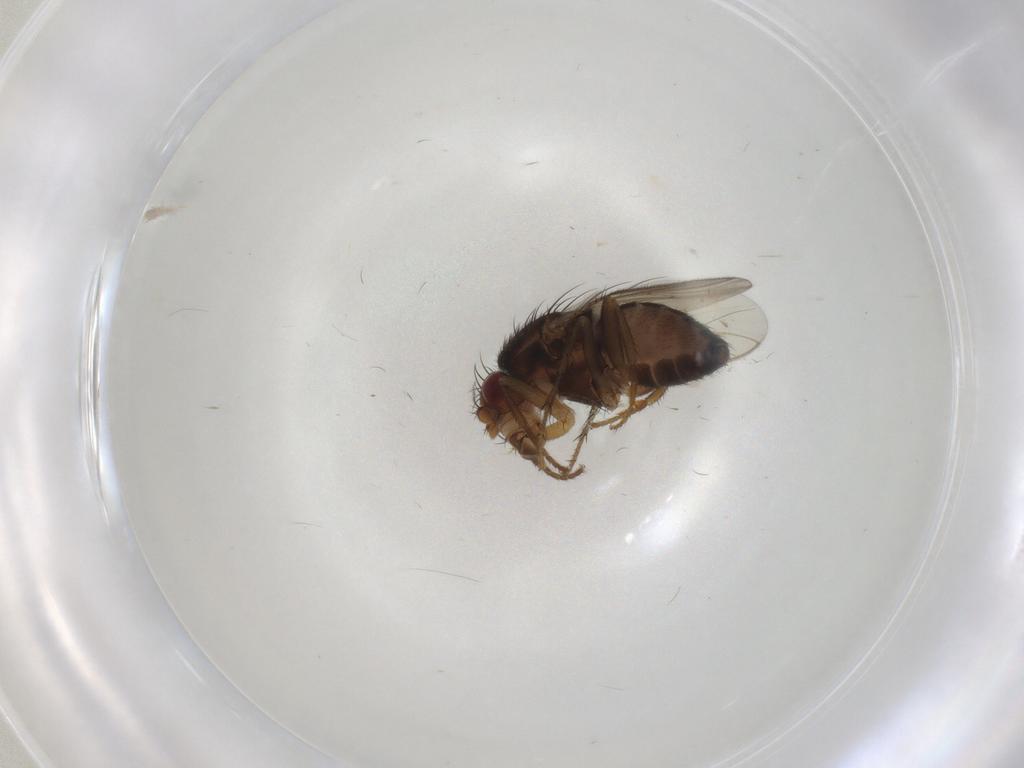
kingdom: Animalia
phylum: Arthropoda
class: Insecta
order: Diptera
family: Sphaeroceridae
